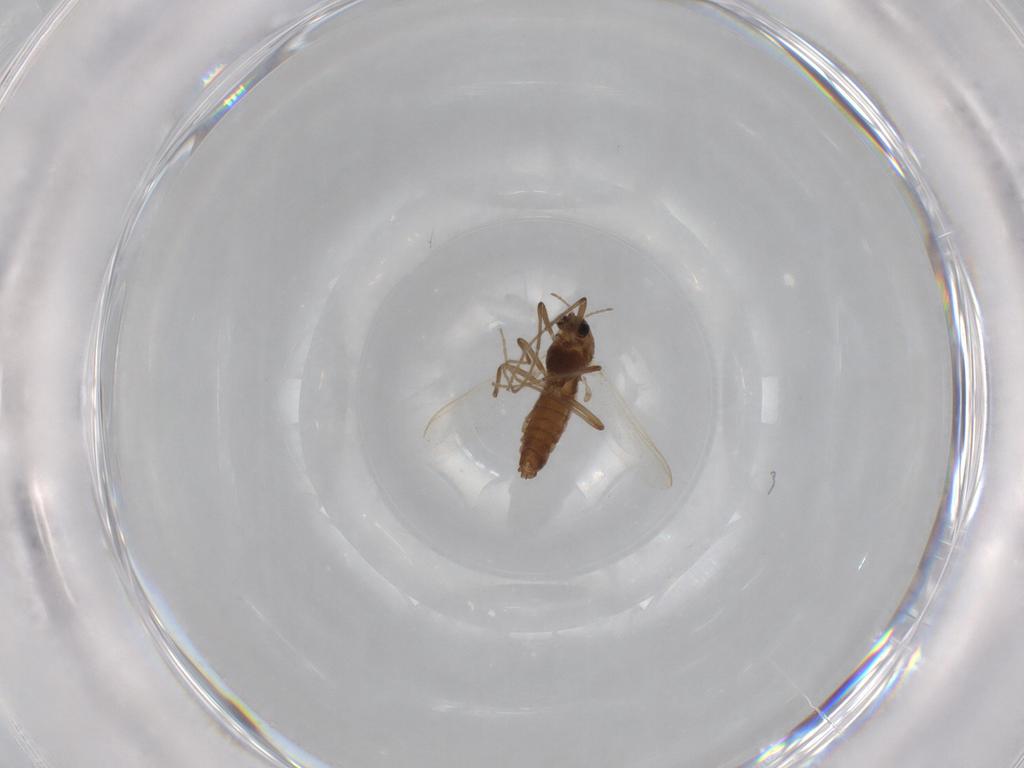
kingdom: Animalia
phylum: Arthropoda
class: Insecta
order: Diptera
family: Chironomidae
